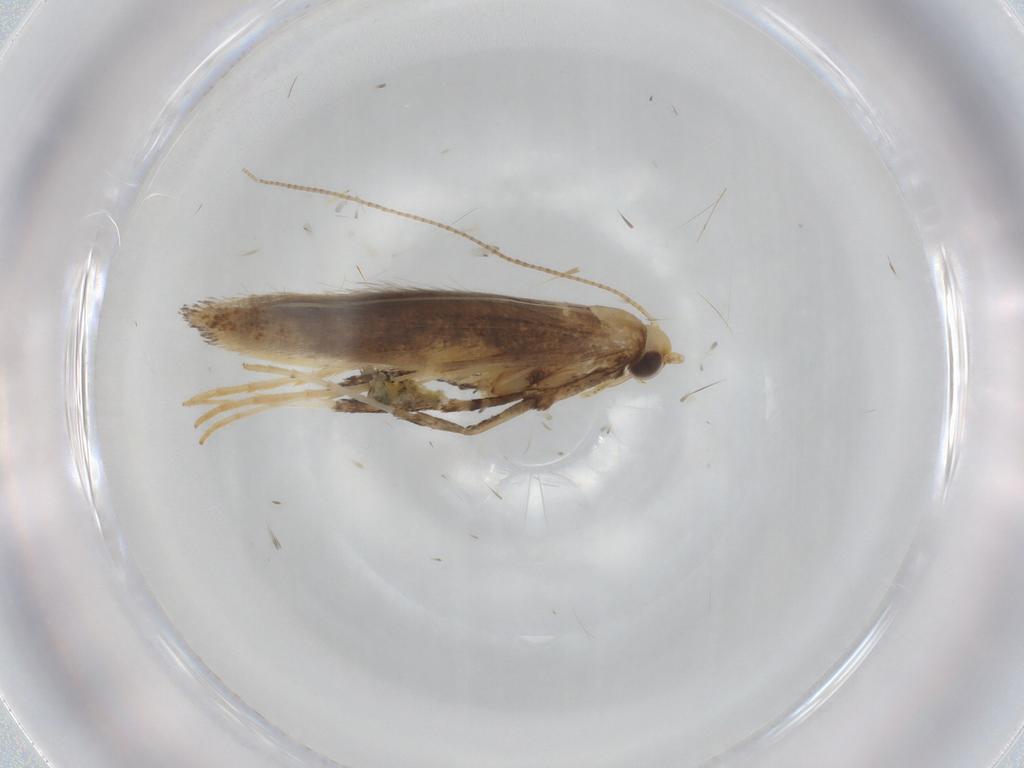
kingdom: Animalia
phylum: Arthropoda
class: Insecta
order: Lepidoptera
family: Gracillariidae
